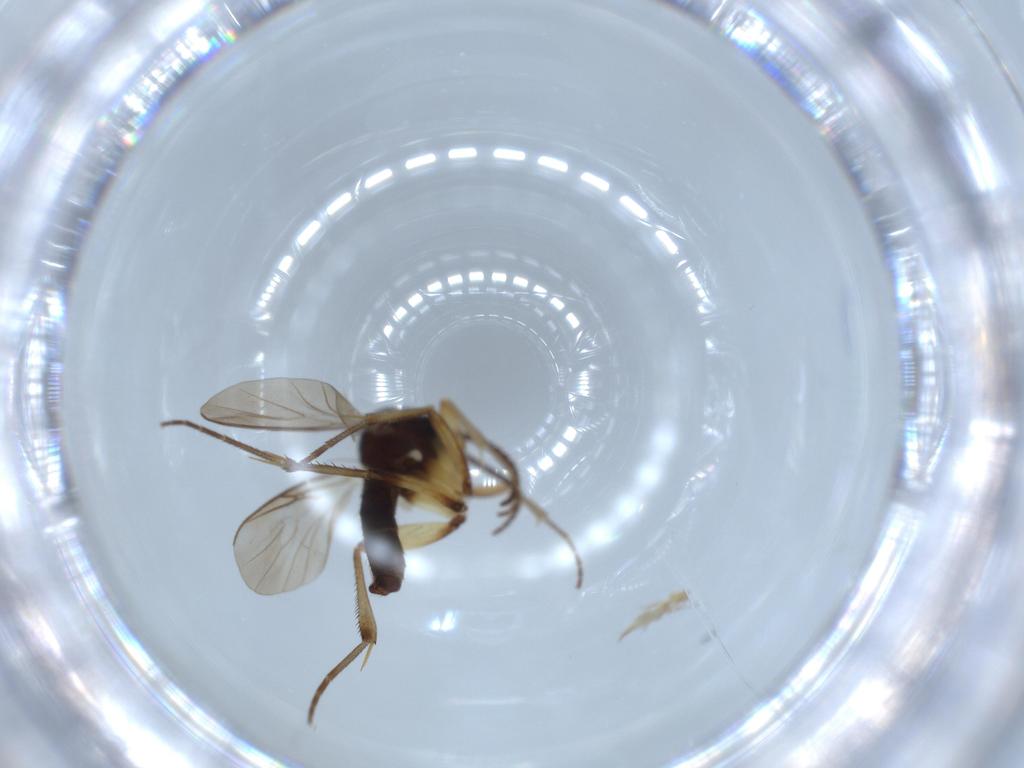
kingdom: Animalia
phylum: Arthropoda
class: Insecta
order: Diptera
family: Mycetophilidae
